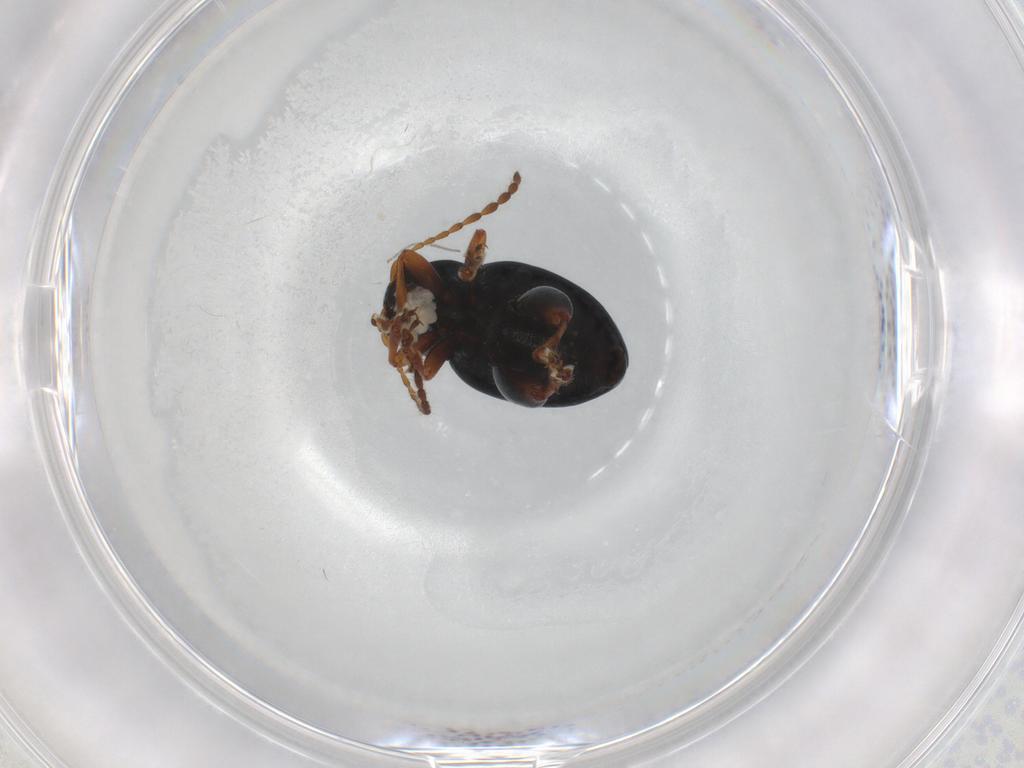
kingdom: Animalia
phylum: Arthropoda
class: Insecta
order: Coleoptera
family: Chrysomelidae
